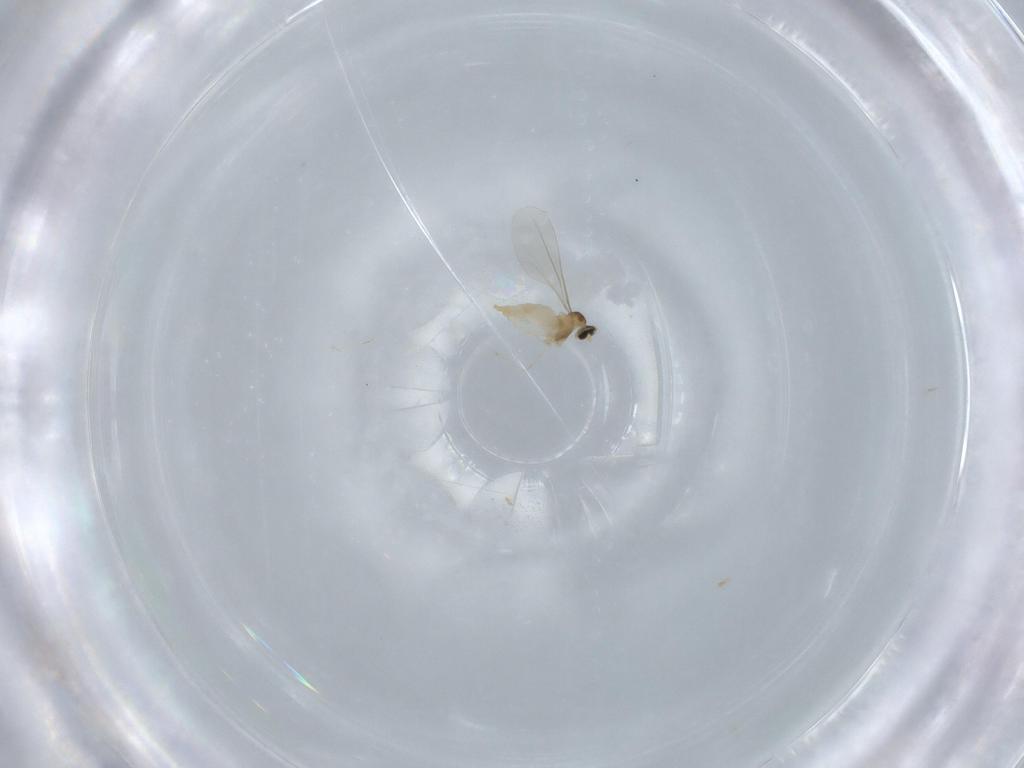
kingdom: Animalia
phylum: Arthropoda
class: Insecta
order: Diptera
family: Cecidomyiidae
